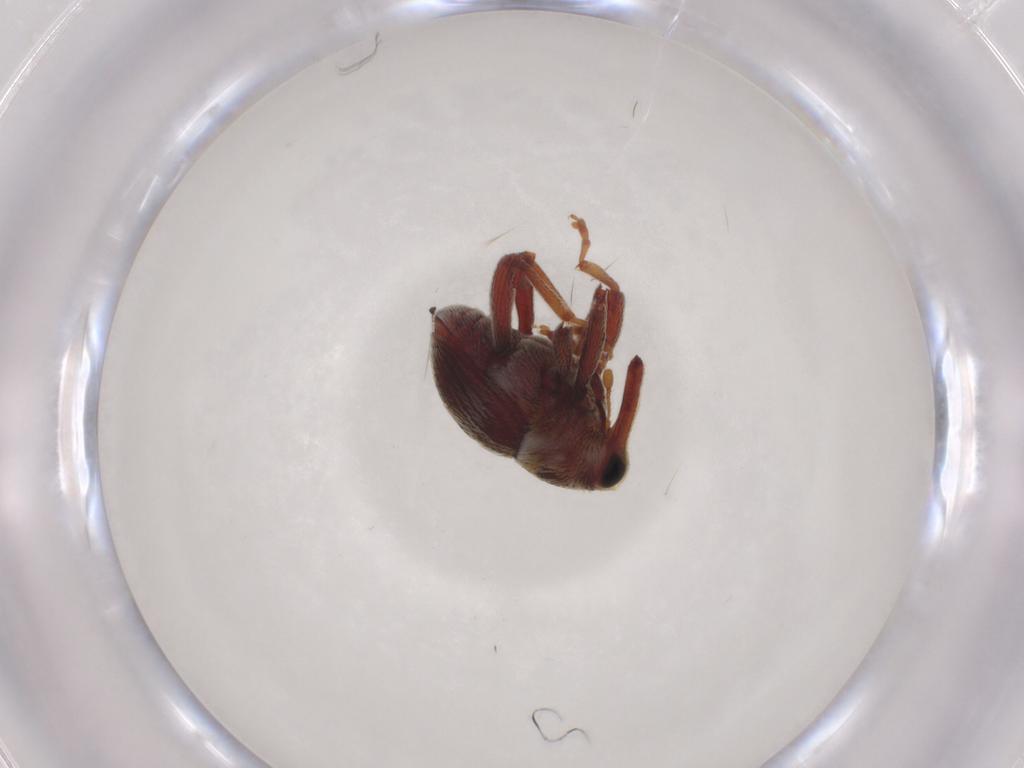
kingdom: Animalia
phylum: Arthropoda
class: Insecta
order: Coleoptera
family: Curculionidae
